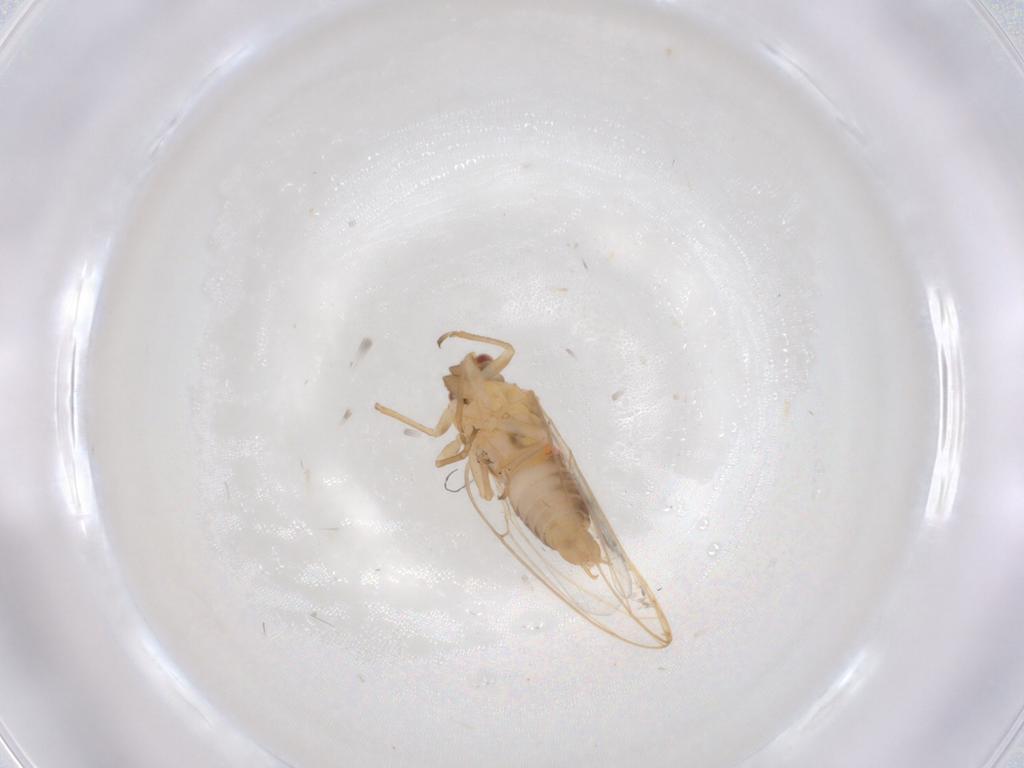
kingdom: Animalia
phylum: Arthropoda
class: Insecta
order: Hemiptera
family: Triozidae
